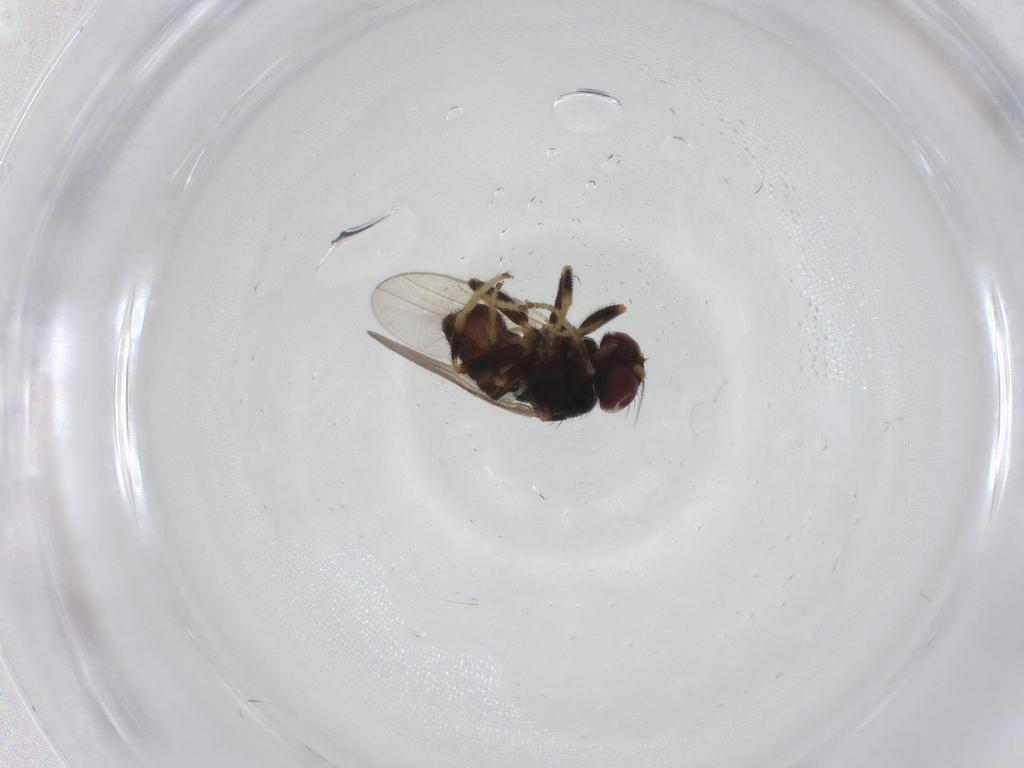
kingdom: Animalia
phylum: Arthropoda
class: Insecta
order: Diptera
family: Chloropidae
